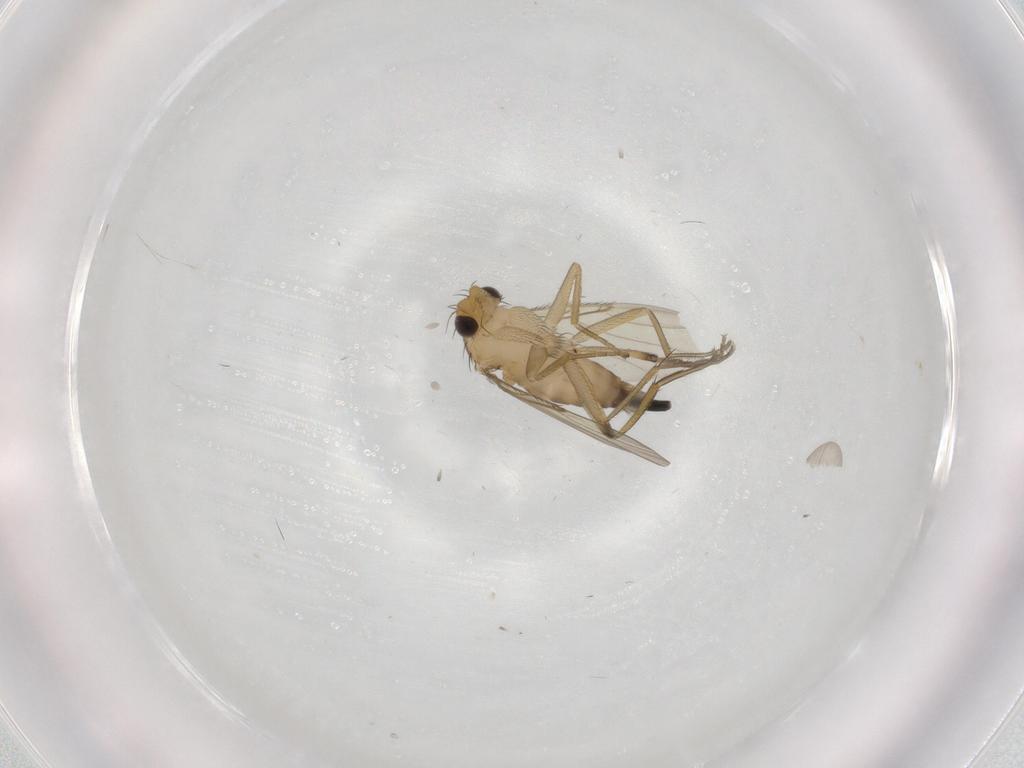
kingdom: Animalia
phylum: Arthropoda
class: Insecta
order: Diptera
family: Phoridae
